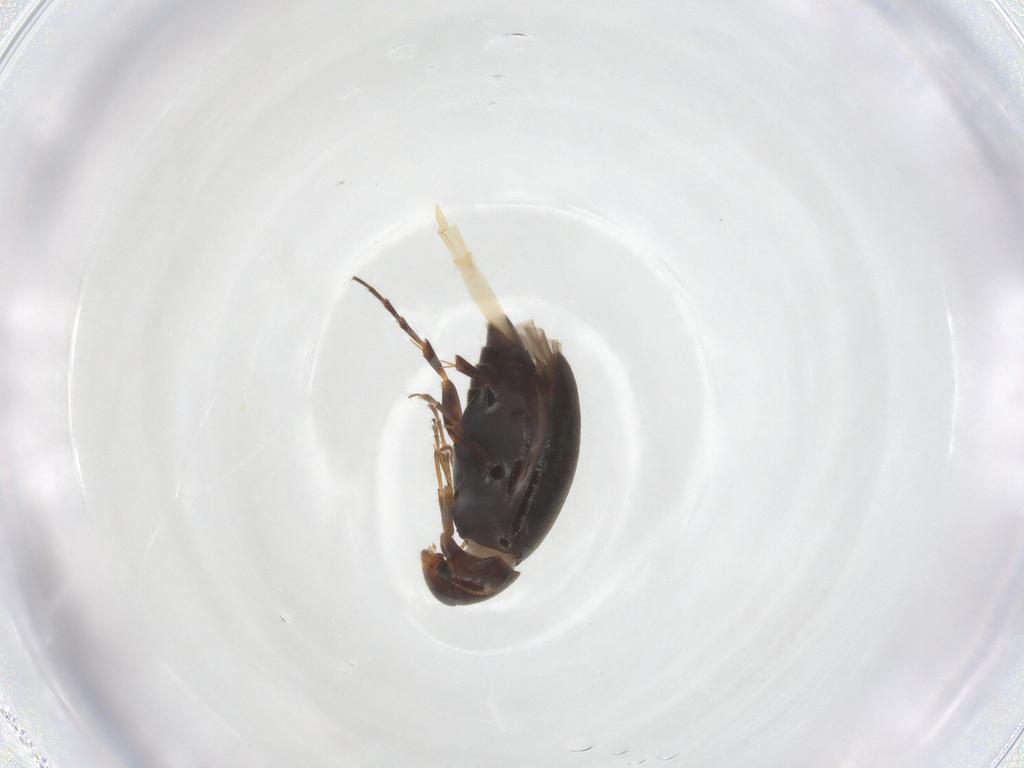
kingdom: Animalia
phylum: Arthropoda
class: Insecta
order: Coleoptera
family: Scraptiidae
